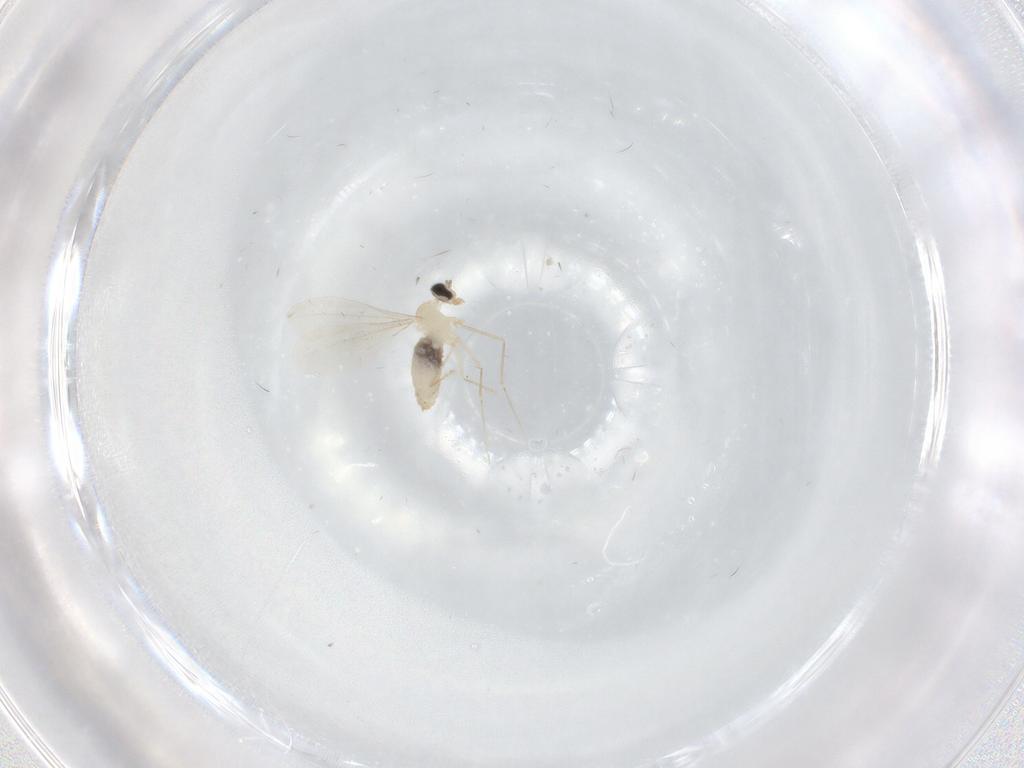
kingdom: Animalia
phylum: Arthropoda
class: Insecta
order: Diptera
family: Limoniidae
